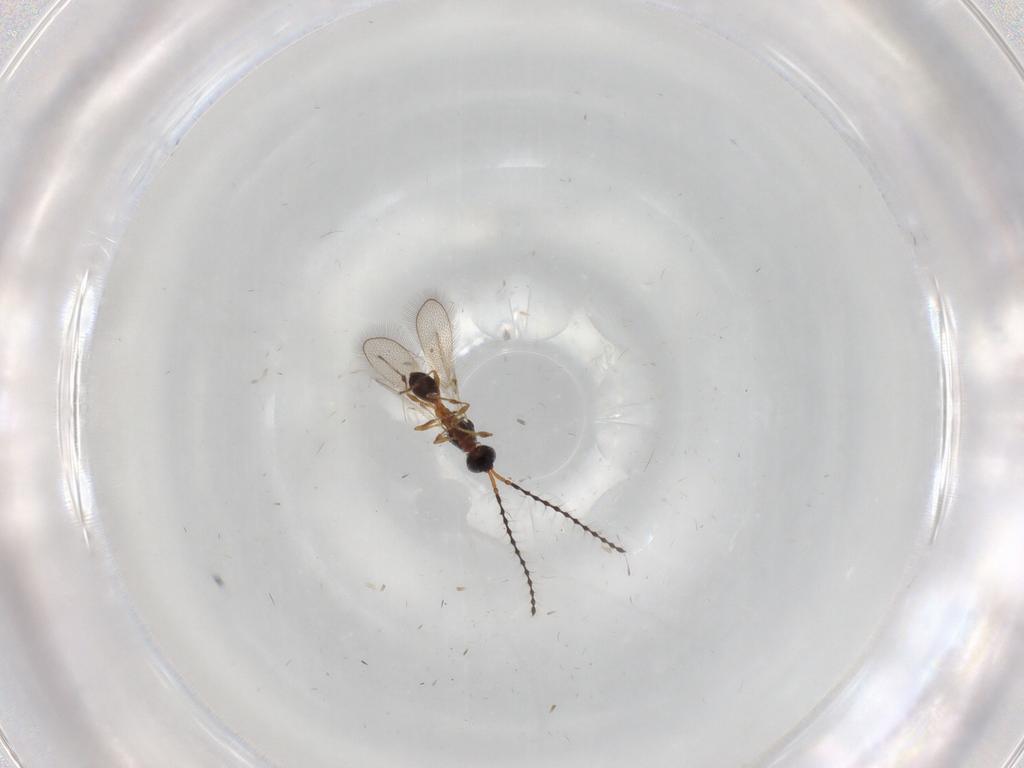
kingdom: Animalia
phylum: Arthropoda
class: Insecta
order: Hymenoptera
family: Diapriidae
